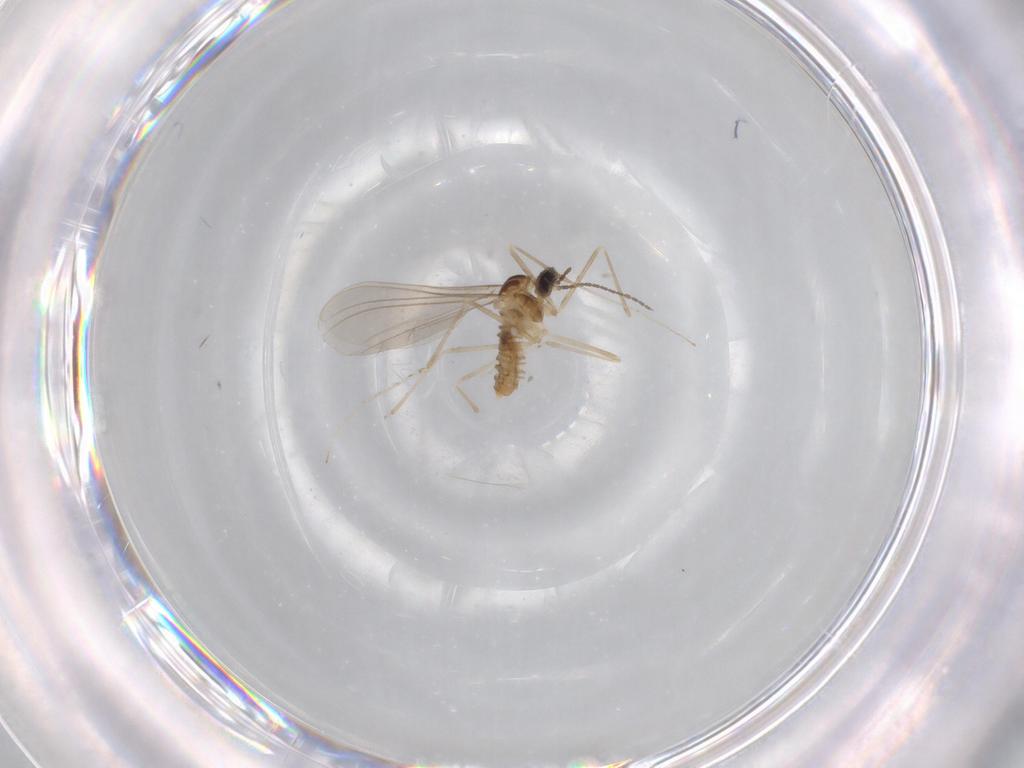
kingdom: Animalia
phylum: Arthropoda
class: Insecta
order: Diptera
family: Cecidomyiidae
